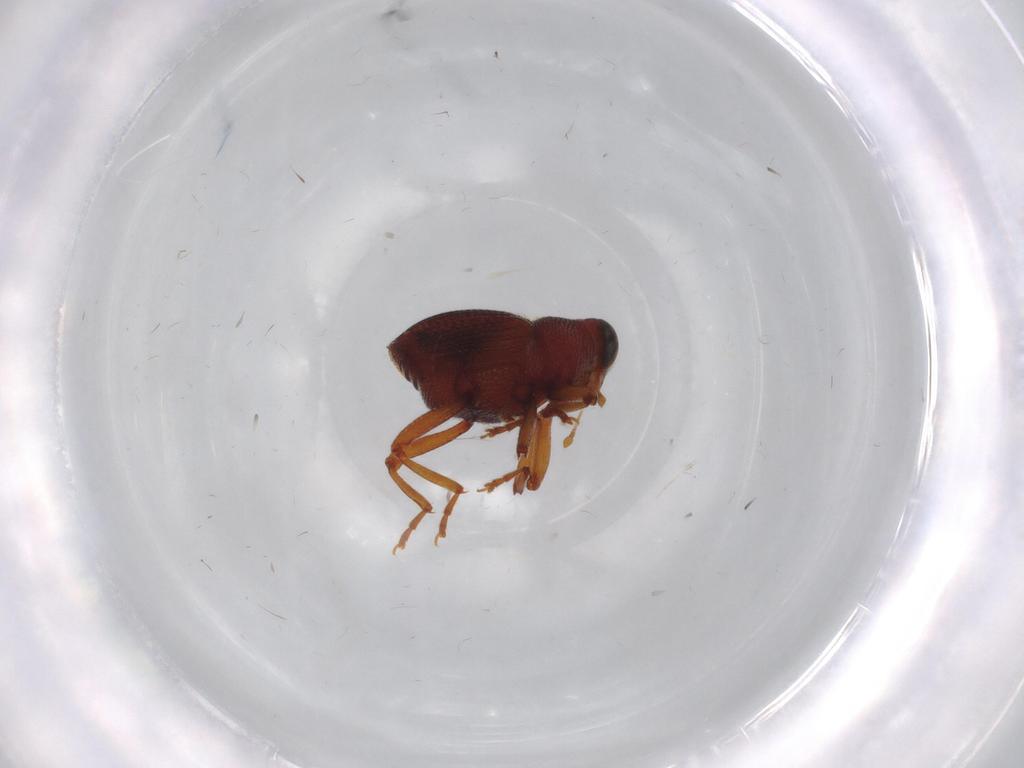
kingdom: Animalia
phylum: Arthropoda
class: Insecta
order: Coleoptera
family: Curculionidae
